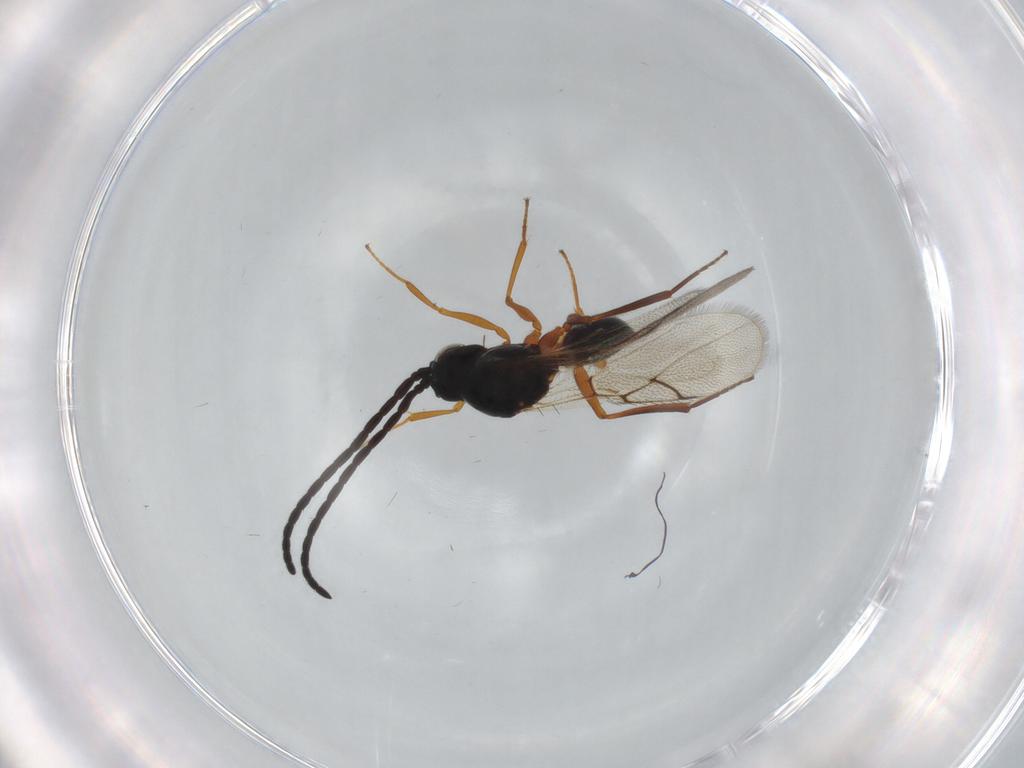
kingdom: Animalia
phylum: Arthropoda
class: Insecta
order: Hymenoptera
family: Figitidae
